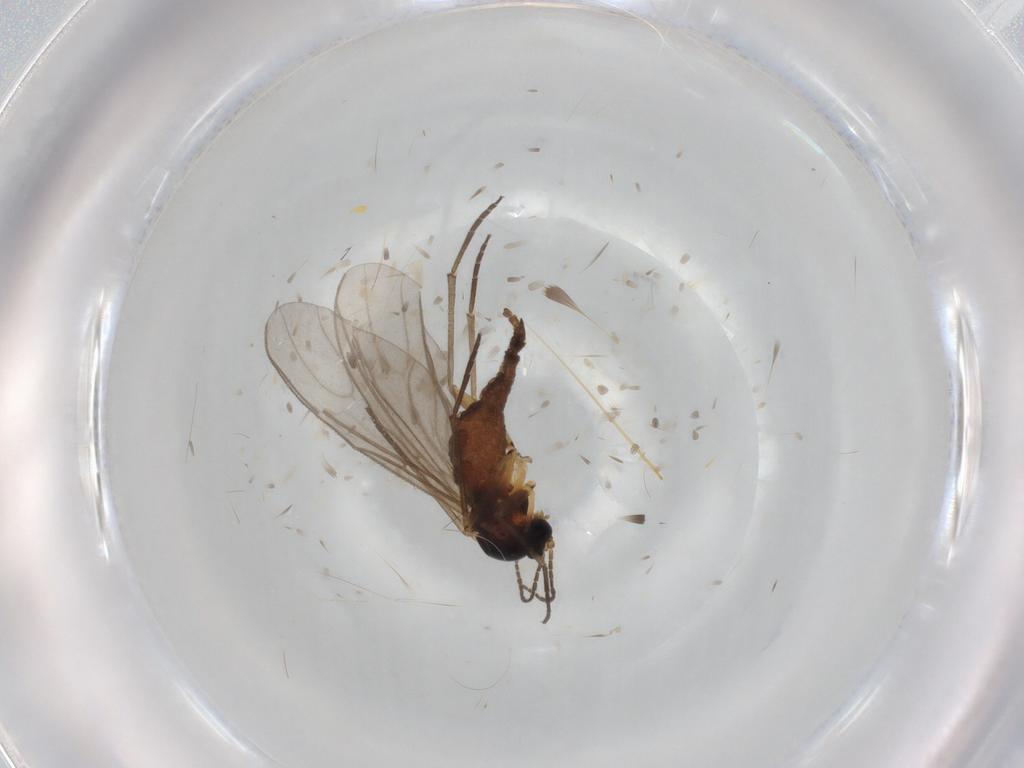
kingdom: Animalia
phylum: Arthropoda
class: Insecta
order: Diptera
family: Sciaridae
